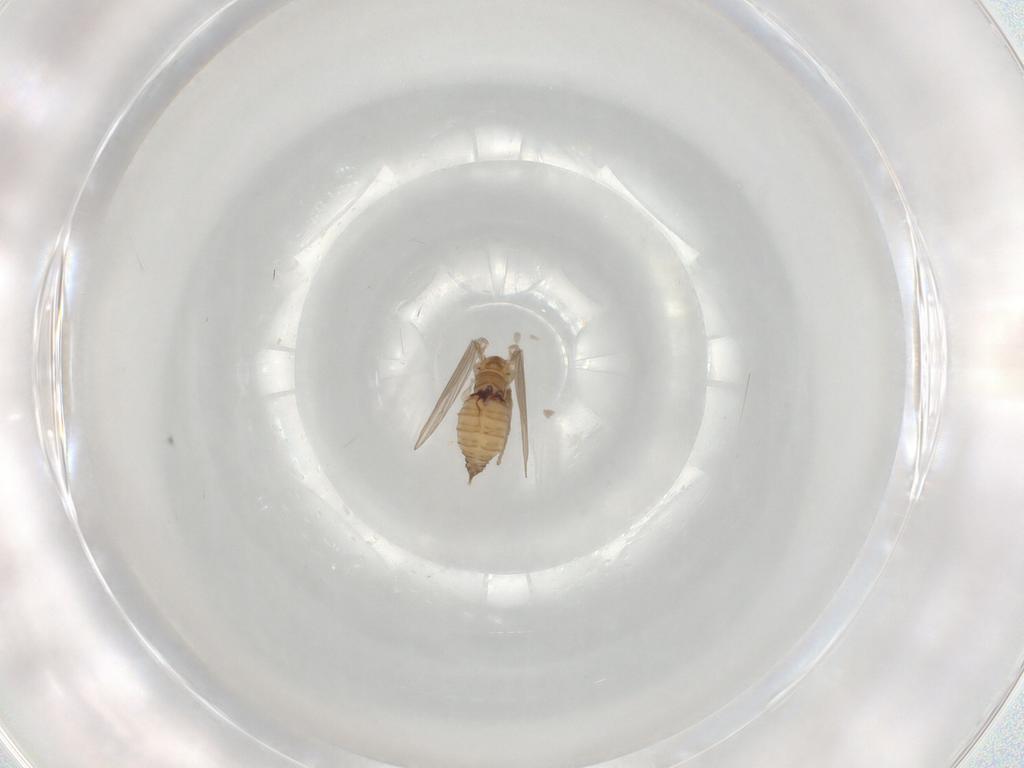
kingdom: Animalia
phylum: Arthropoda
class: Insecta
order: Diptera
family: Psychodidae
